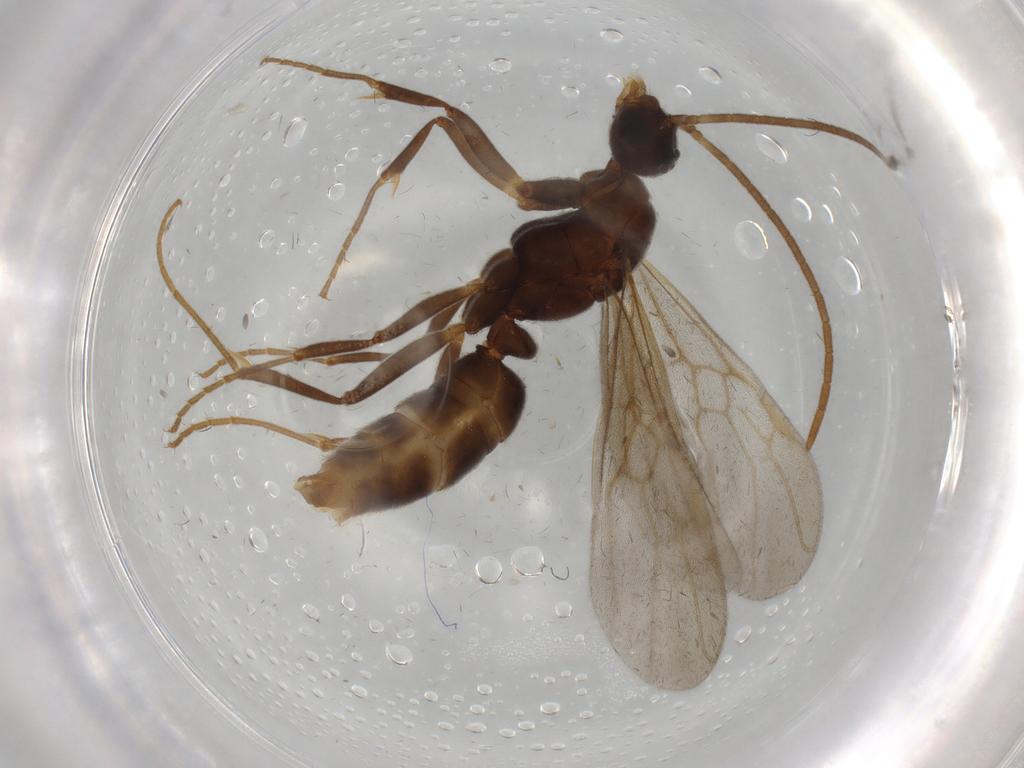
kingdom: Animalia
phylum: Arthropoda
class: Insecta
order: Hymenoptera
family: Formicidae
